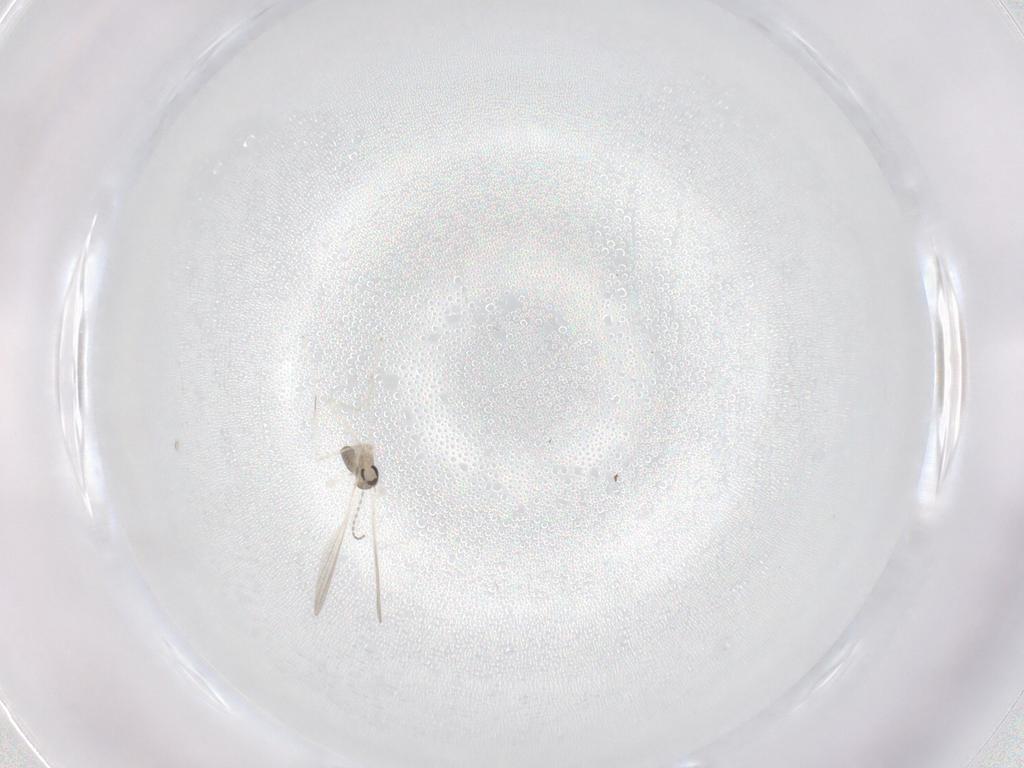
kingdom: Animalia
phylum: Arthropoda
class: Insecta
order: Diptera
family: Cecidomyiidae
